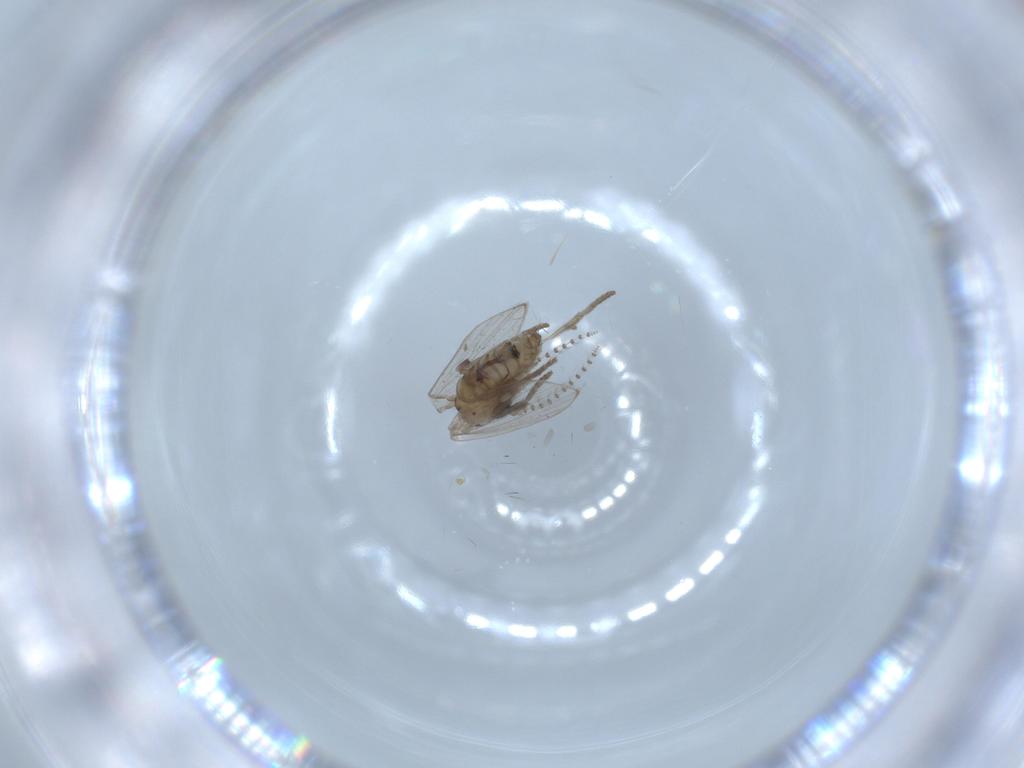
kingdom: Animalia
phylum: Arthropoda
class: Insecta
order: Diptera
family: Psychodidae
